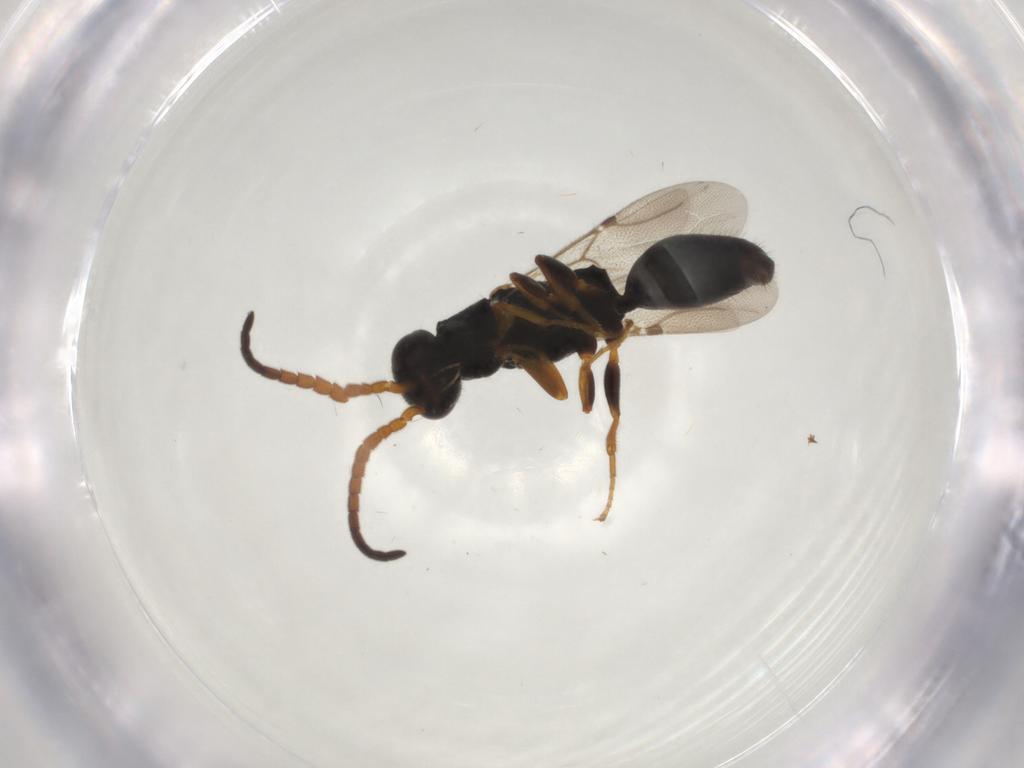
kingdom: Animalia
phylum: Arthropoda
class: Insecta
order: Hymenoptera
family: Bethylidae
